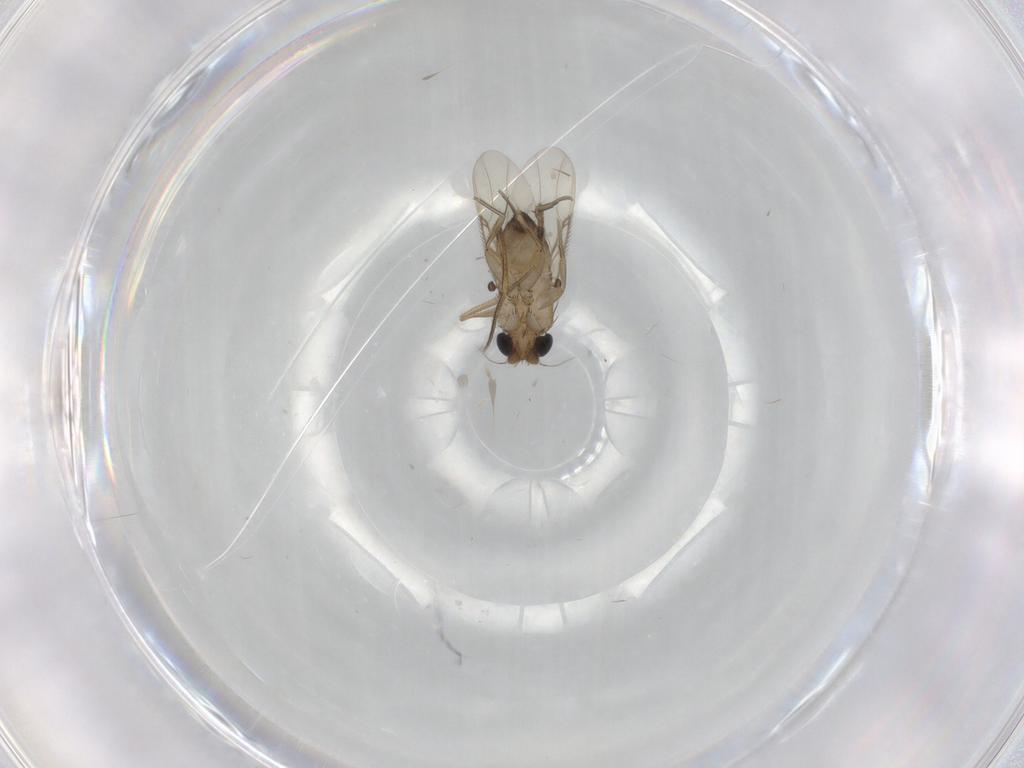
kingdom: Animalia
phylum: Arthropoda
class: Insecta
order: Diptera
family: Phoridae
